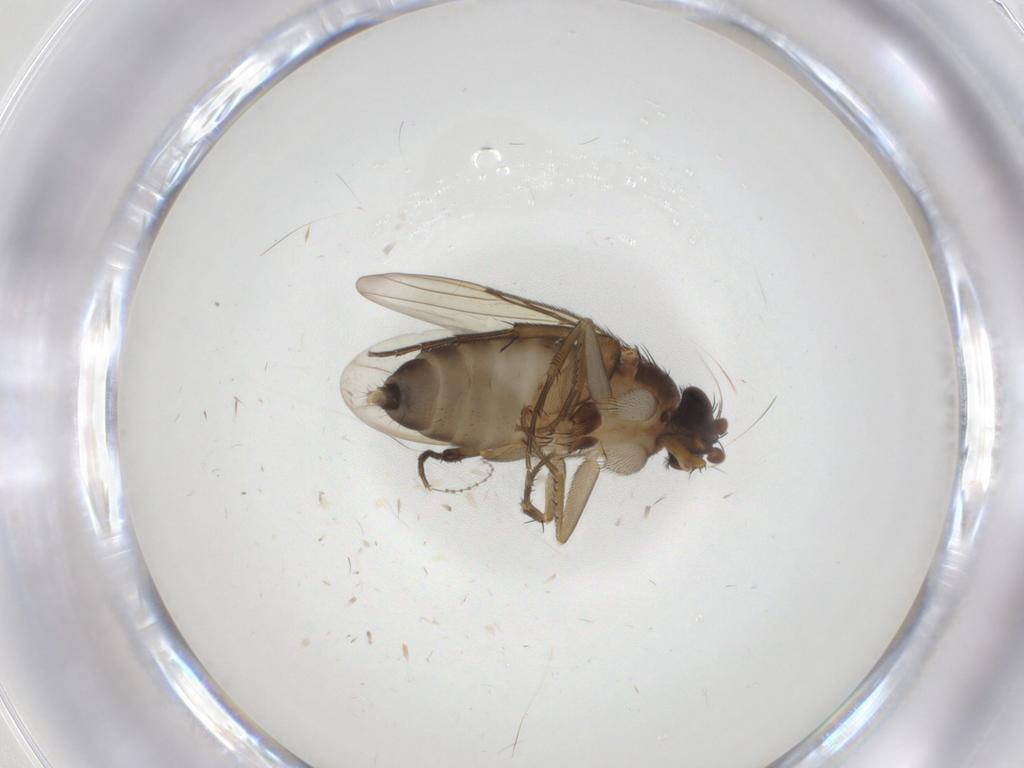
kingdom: Animalia
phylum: Arthropoda
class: Insecta
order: Diptera
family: Phoridae
